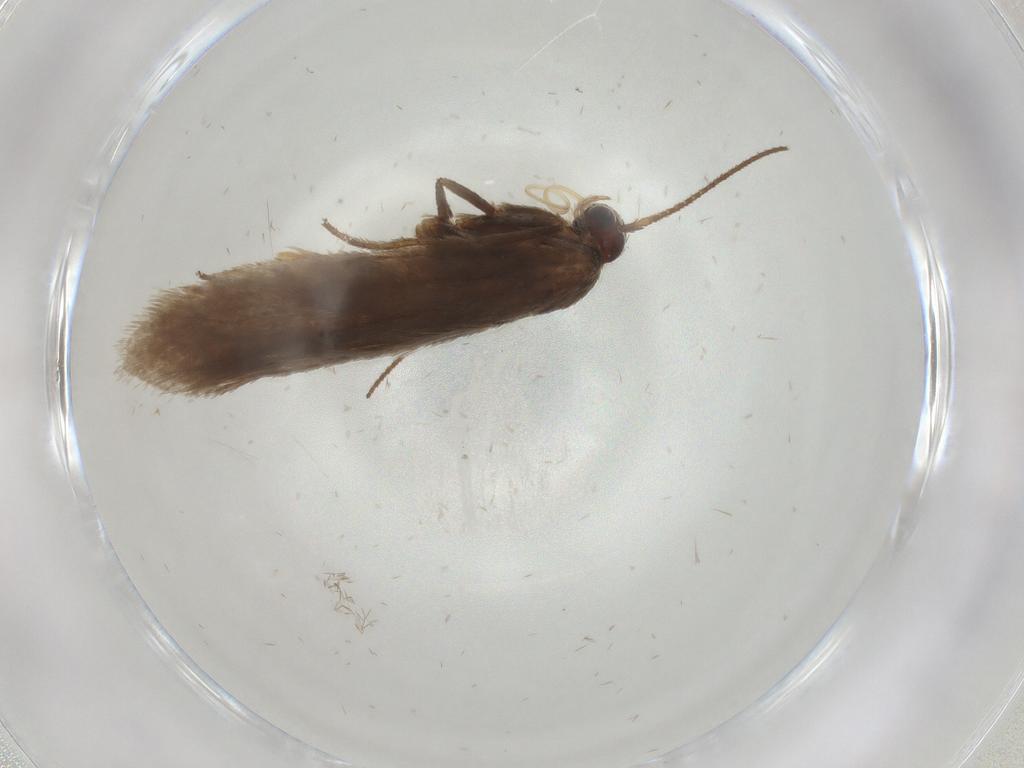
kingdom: Animalia
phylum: Arthropoda
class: Insecta
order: Lepidoptera
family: Limacodidae
